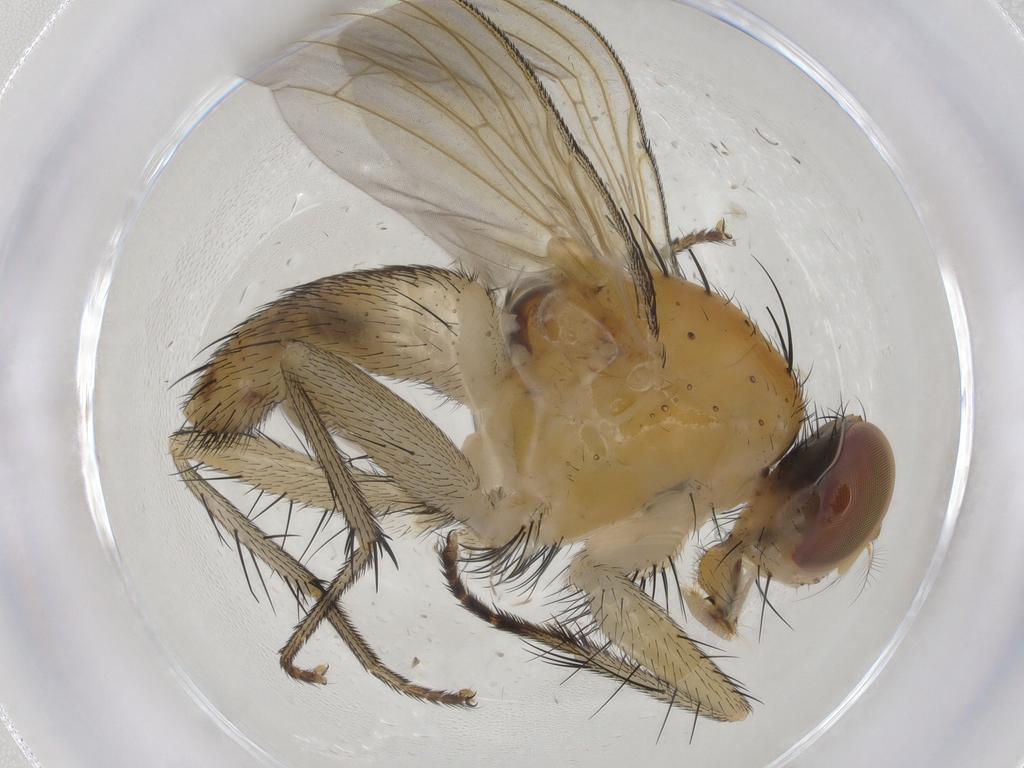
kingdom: Animalia
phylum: Arthropoda
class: Insecta
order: Diptera
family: Muscidae
